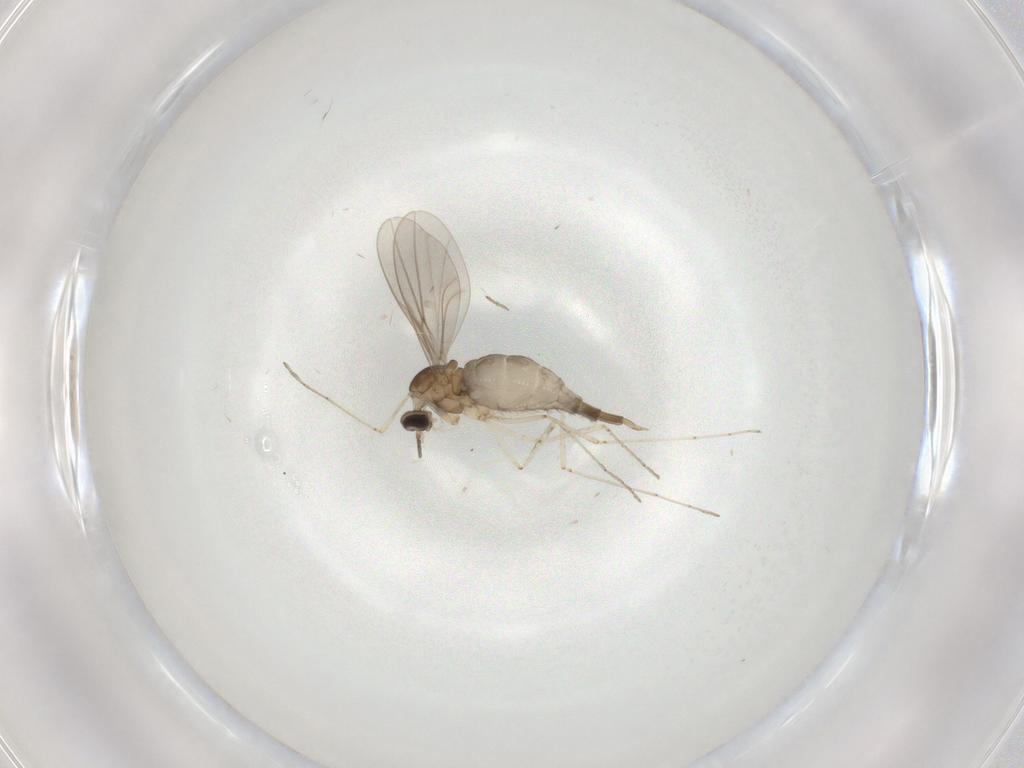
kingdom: Animalia
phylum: Arthropoda
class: Insecta
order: Diptera
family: Cecidomyiidae
